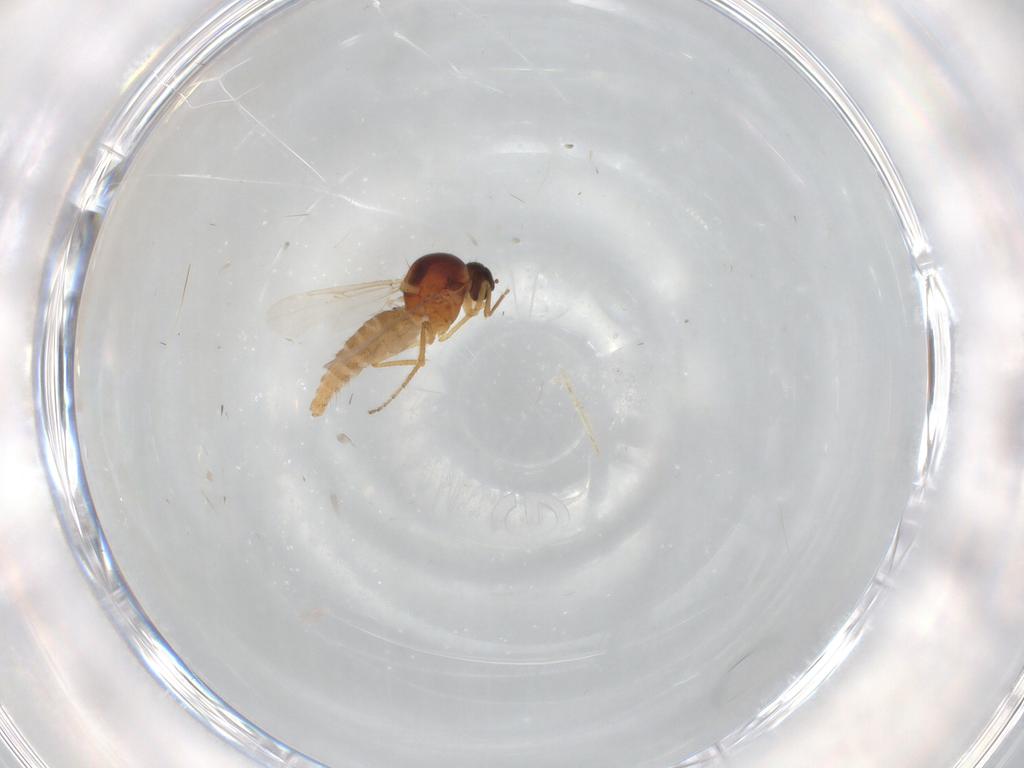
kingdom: Animalia
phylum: Arthropoda
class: Insecta
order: Diptera
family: Ceratopogonidae
